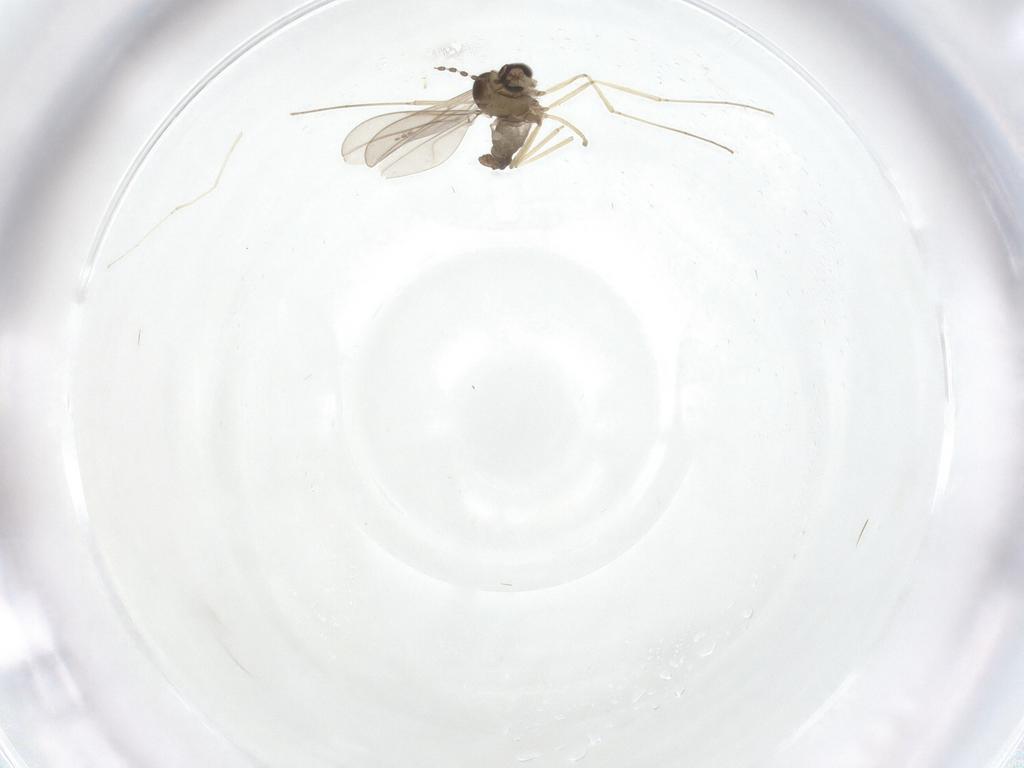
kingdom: Animalia
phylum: Arthropoda
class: Insecta
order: Diptera
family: Cecidomyiidae
